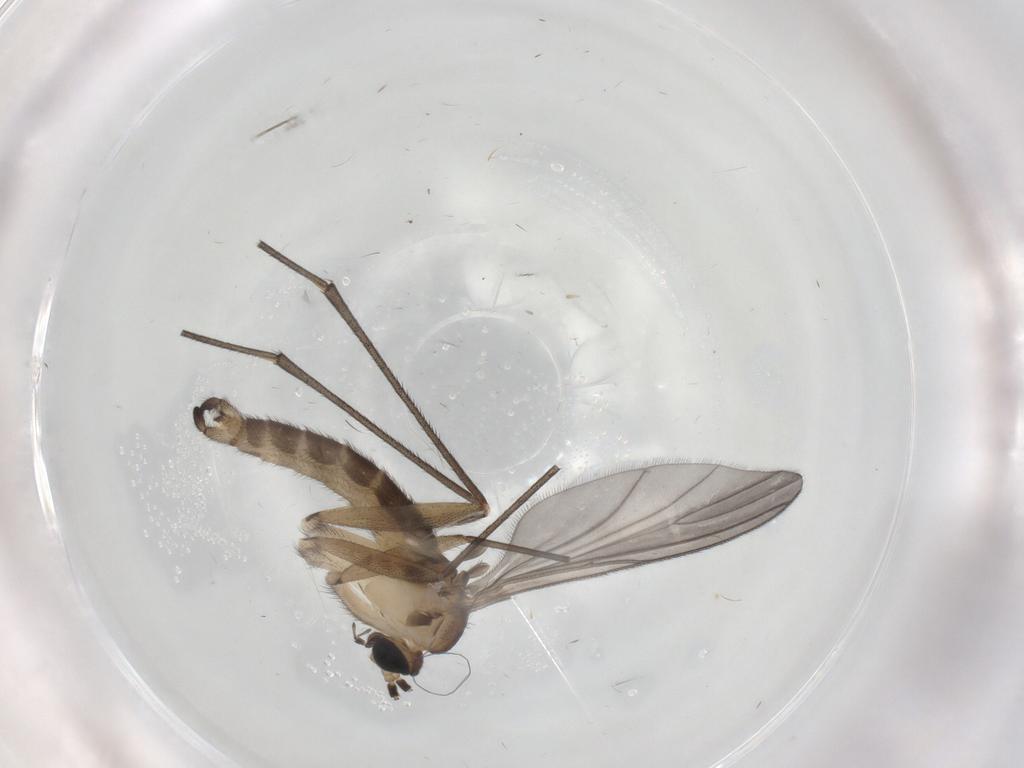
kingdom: Animalia
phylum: Arthropoda
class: Insecta
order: Diptera
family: Sciaridae
